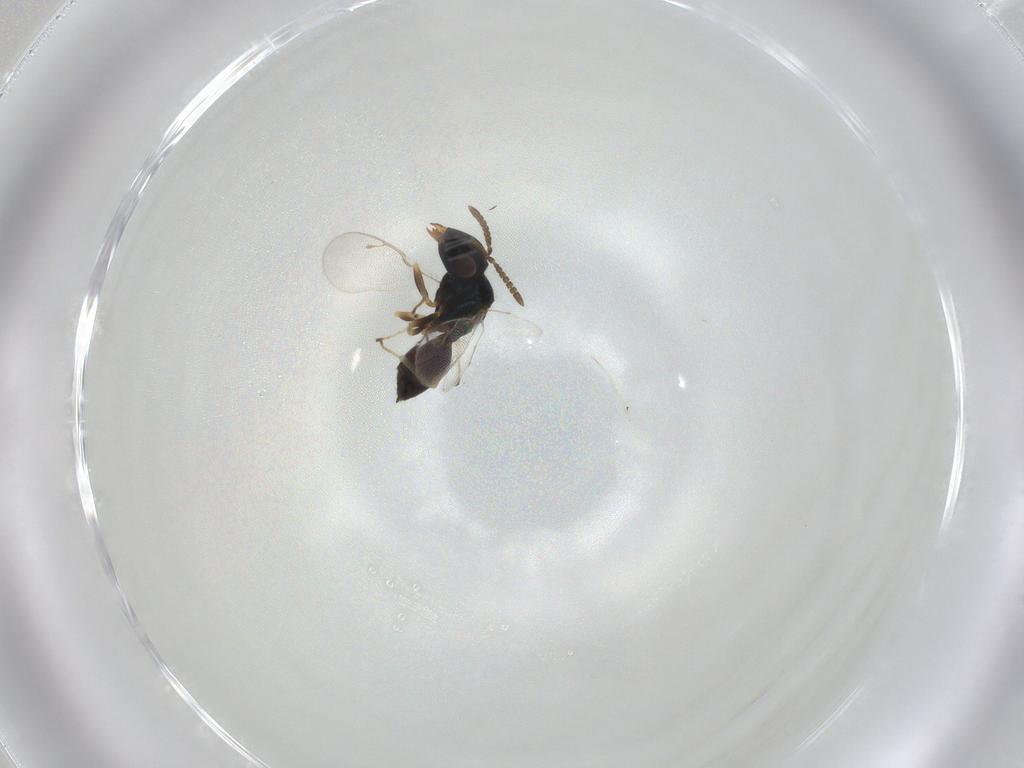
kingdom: Animalia
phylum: Arthropoda
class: Insecta
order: Hymenoptera
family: Pteromalidae
